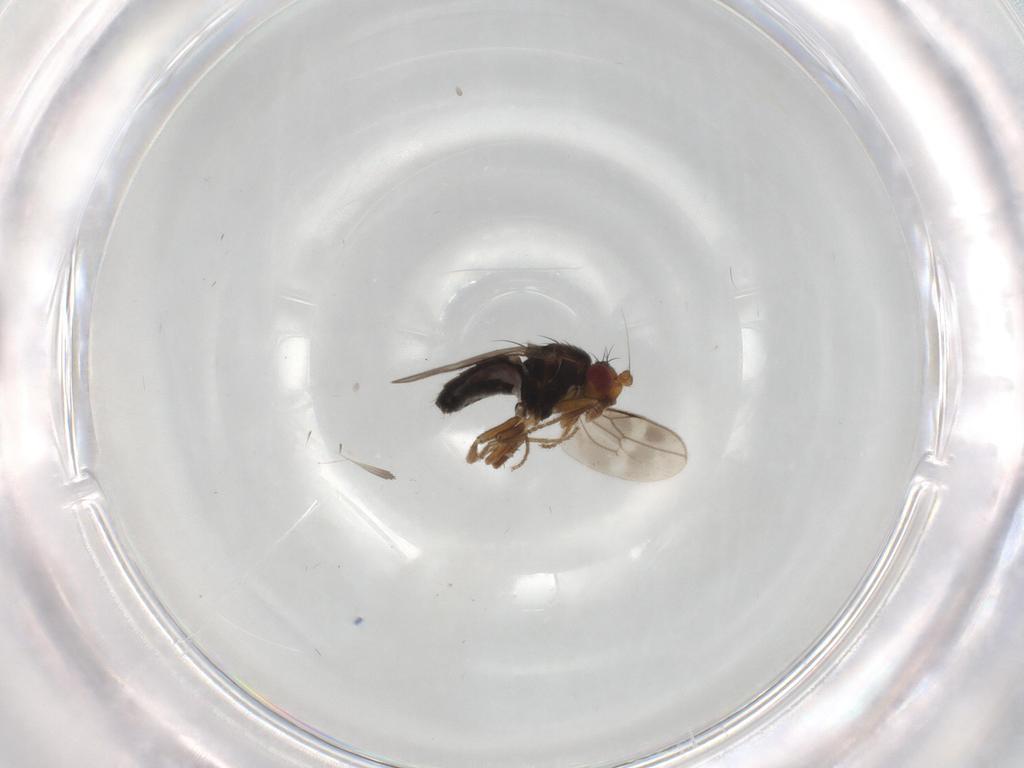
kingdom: Animalia
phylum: Arthropoda
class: Insecta
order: Diptera
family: Sphaeroceridae
